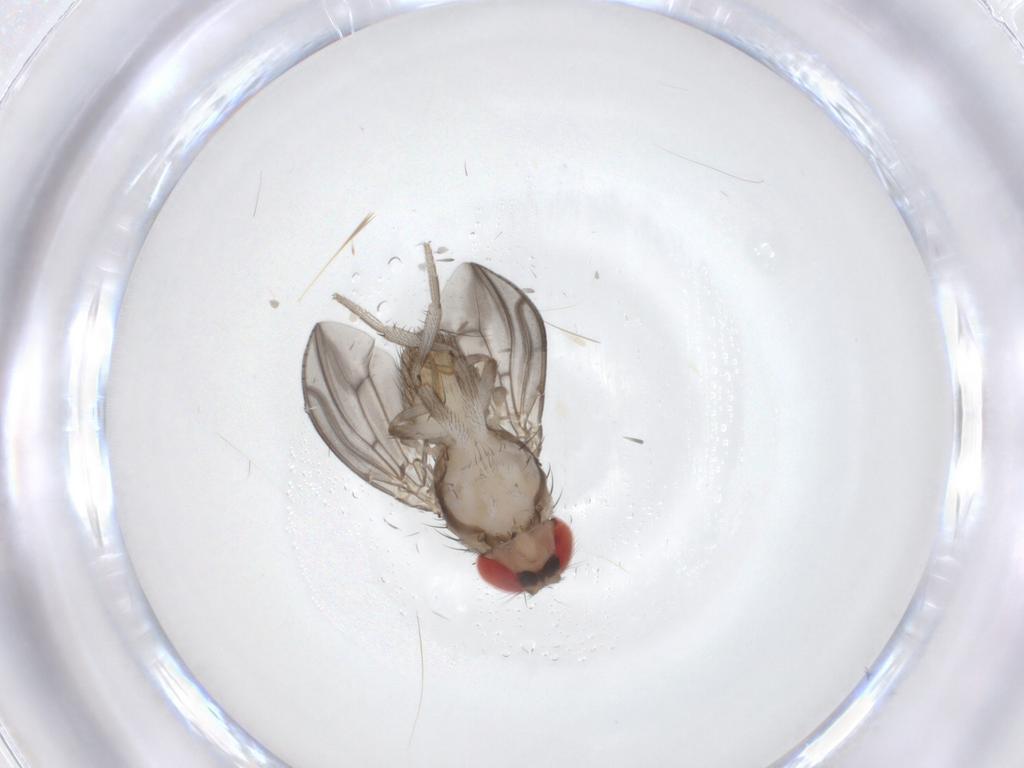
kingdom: Animalia
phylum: Arthropoda
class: Insecta
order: Diptera
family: Sciaridae
